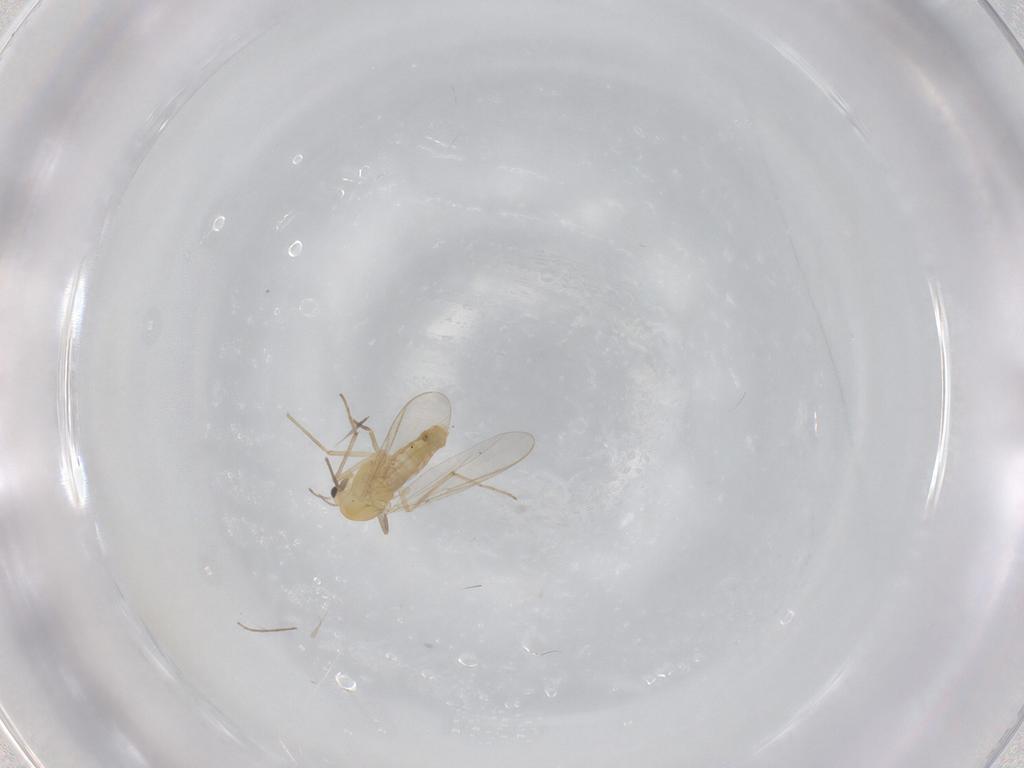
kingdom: Animalia
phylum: Arthropoda
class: Insecta
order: Diptera
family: Chironomidae
